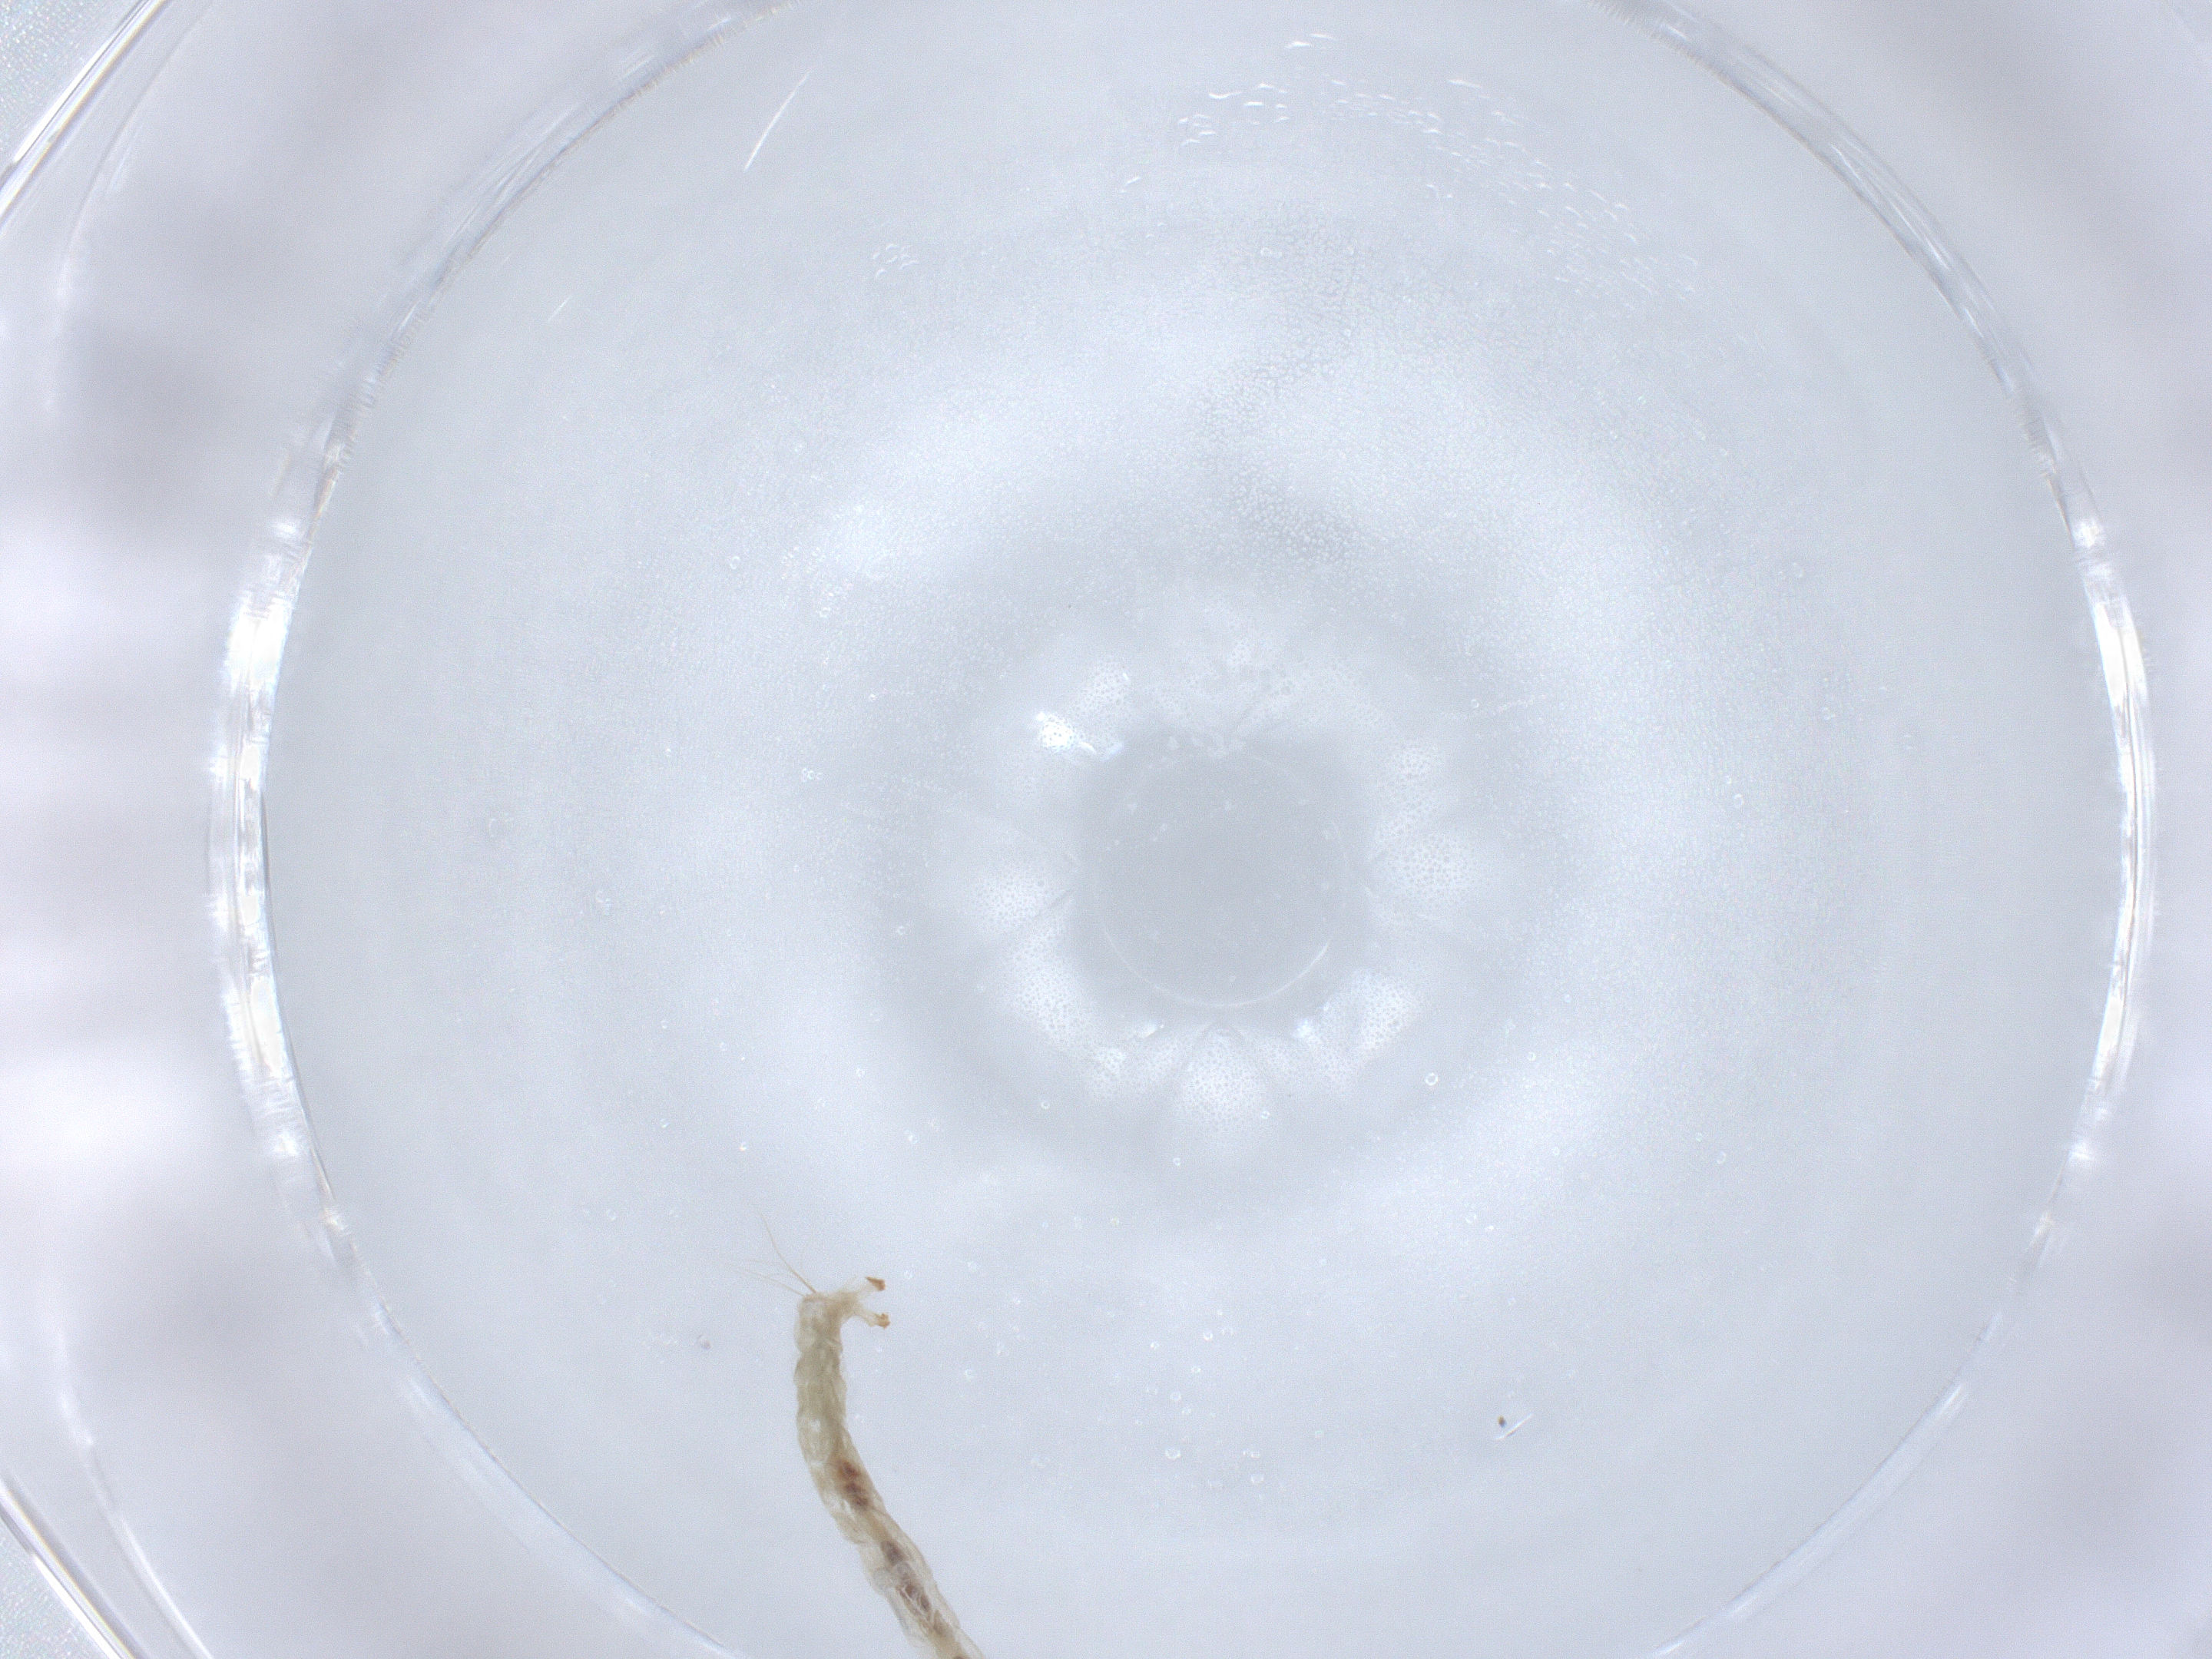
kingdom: Animalia
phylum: Arthropoda
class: Insecta
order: Diptera
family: Chironomidae
